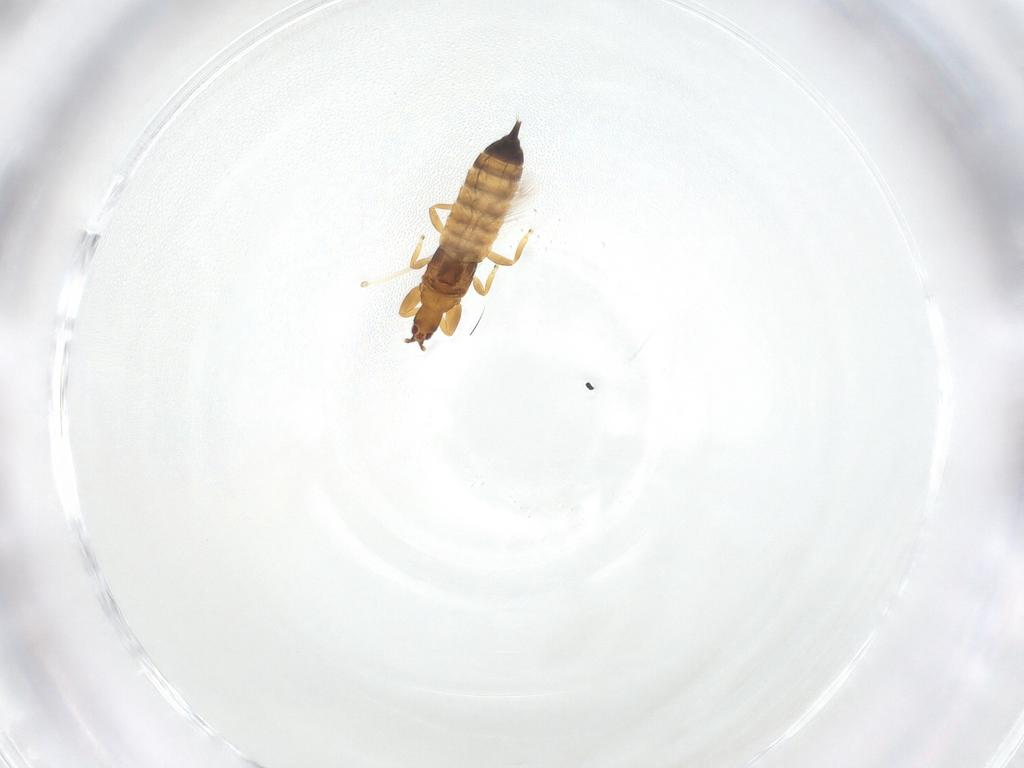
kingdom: Animalia
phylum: Arthropoda
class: Insecta
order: Thysanoptera
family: Phlaeothripidae
